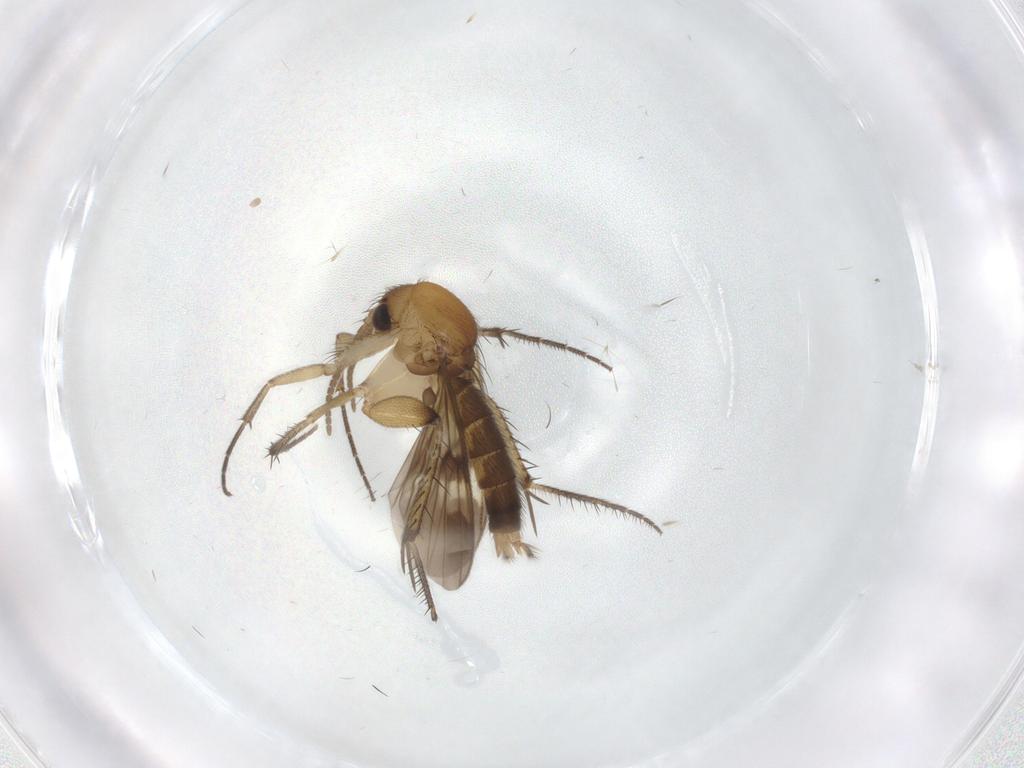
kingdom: Animalia
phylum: Arthropoda
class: Insecta
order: Diptera
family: Mycetophilidae
